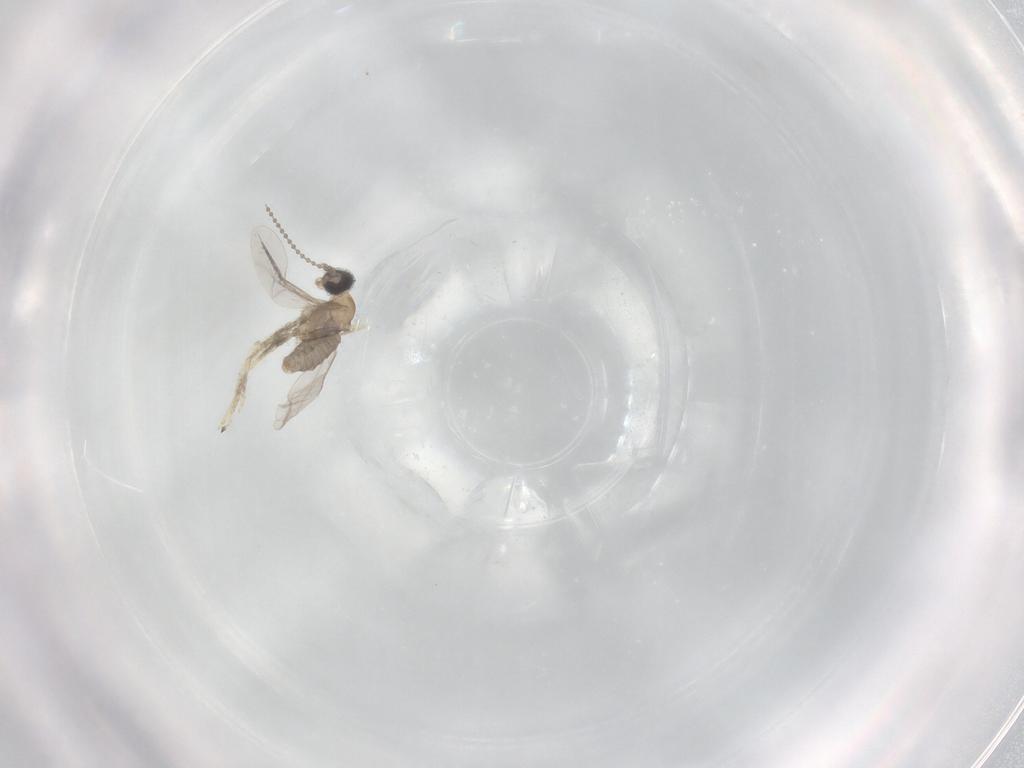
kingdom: Animalia
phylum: Arthropoda
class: Insecta
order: Diptera
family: Cecidomyiidae
